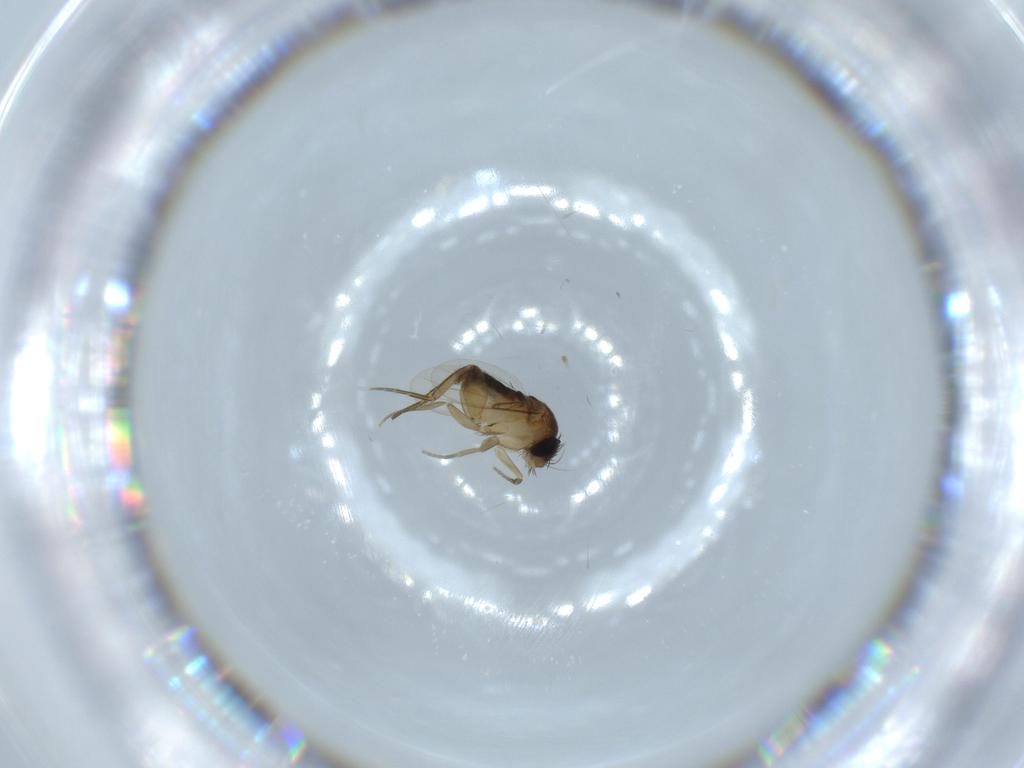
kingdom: Animalia
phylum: Arthropoda
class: Insecta
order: Diptera
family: Phoridae
